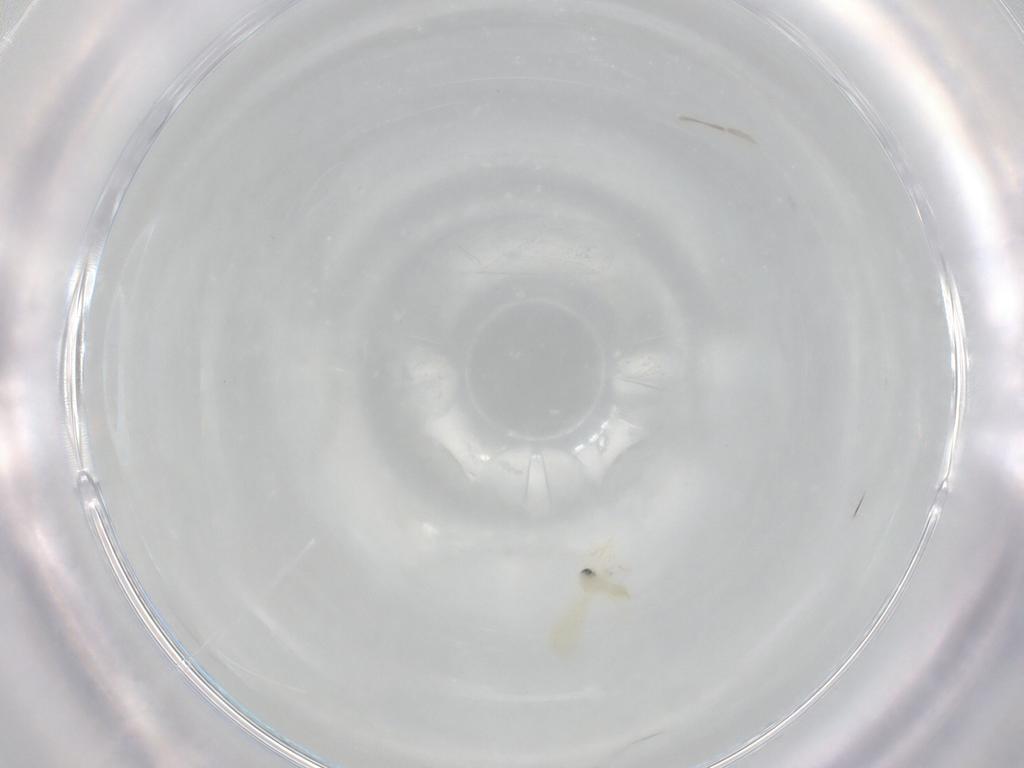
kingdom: Animalia
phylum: Arthropoda
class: Insecta
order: Hemiptera
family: Aleyrodidae
